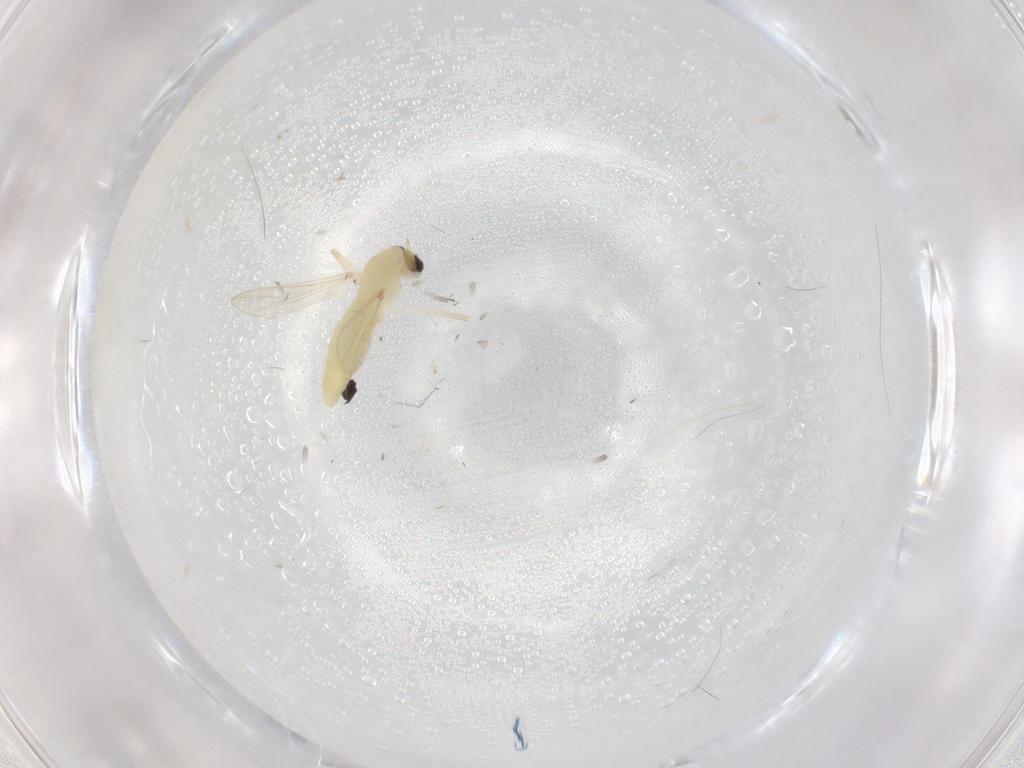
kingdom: Animalia
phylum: Arthropoda
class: Insecta
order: Diptera
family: Chironomidae
